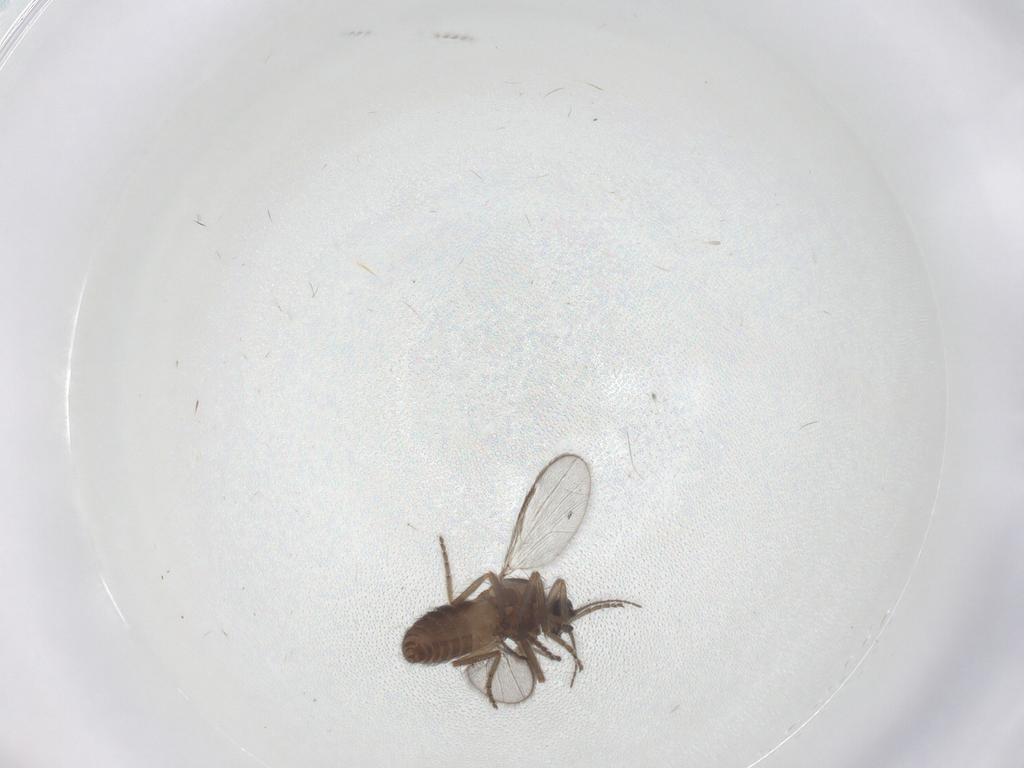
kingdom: Animalia
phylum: Arthropoda
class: Insecta
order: Diptera
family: Ceratopogonidae
